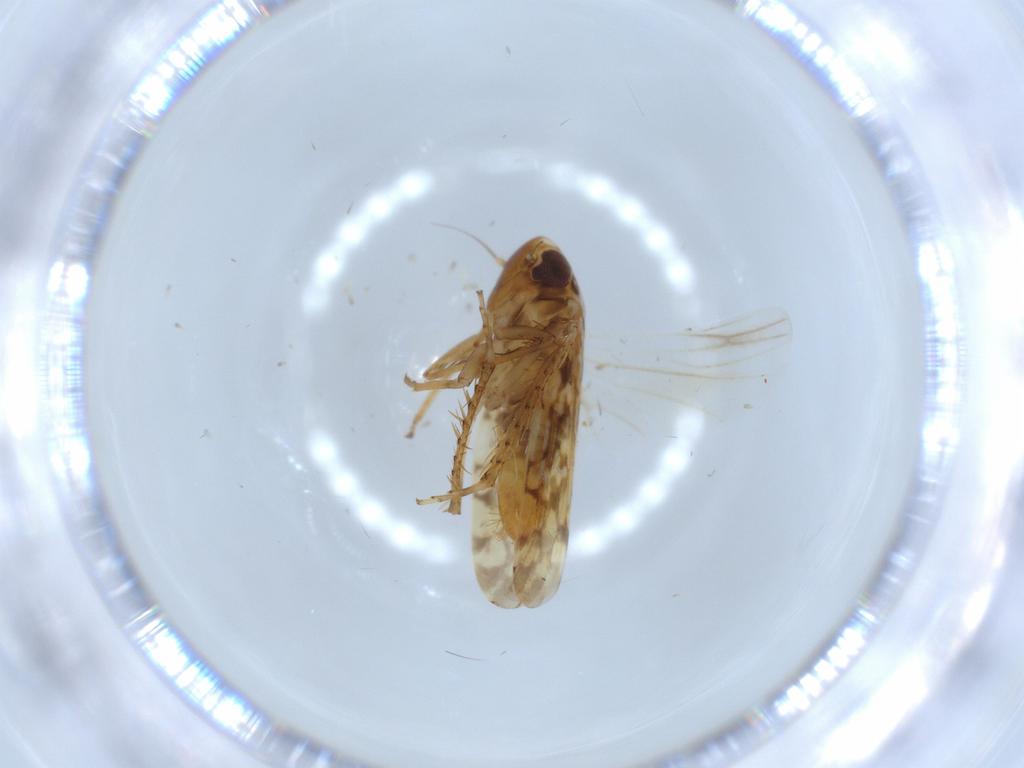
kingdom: Animalia
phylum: Arthropoda
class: Insecta
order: Hemiptera
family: Cicadellidae
